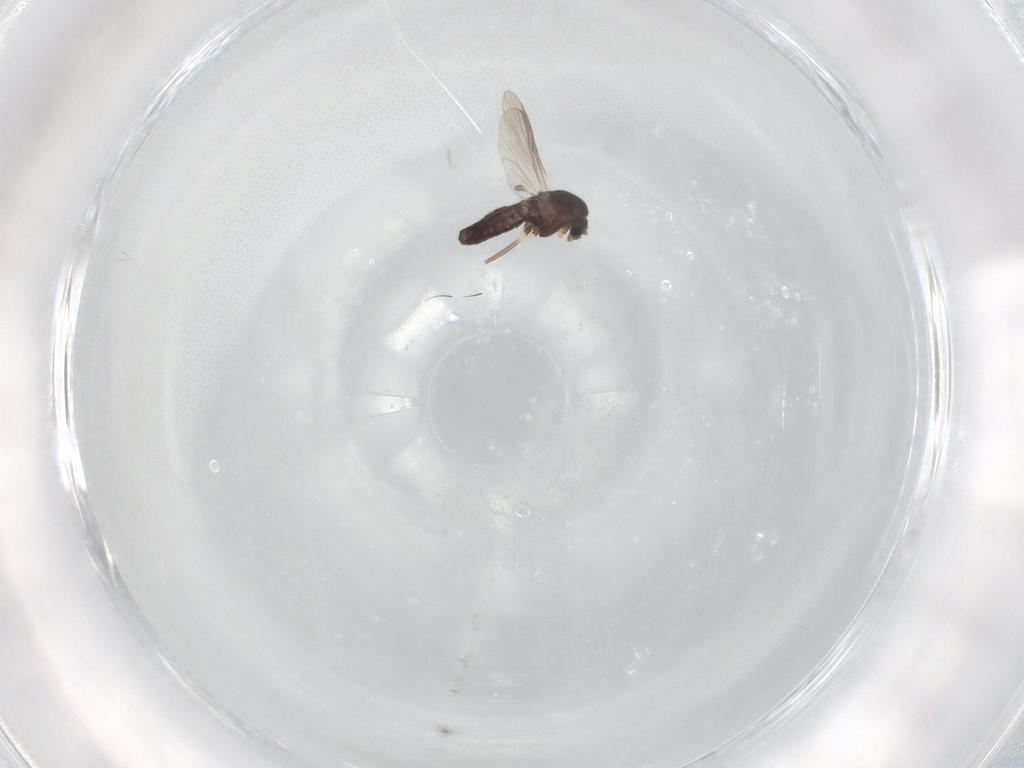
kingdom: Animalia
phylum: Arthropoda
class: Insecta
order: Diptera
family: Chironomidae
